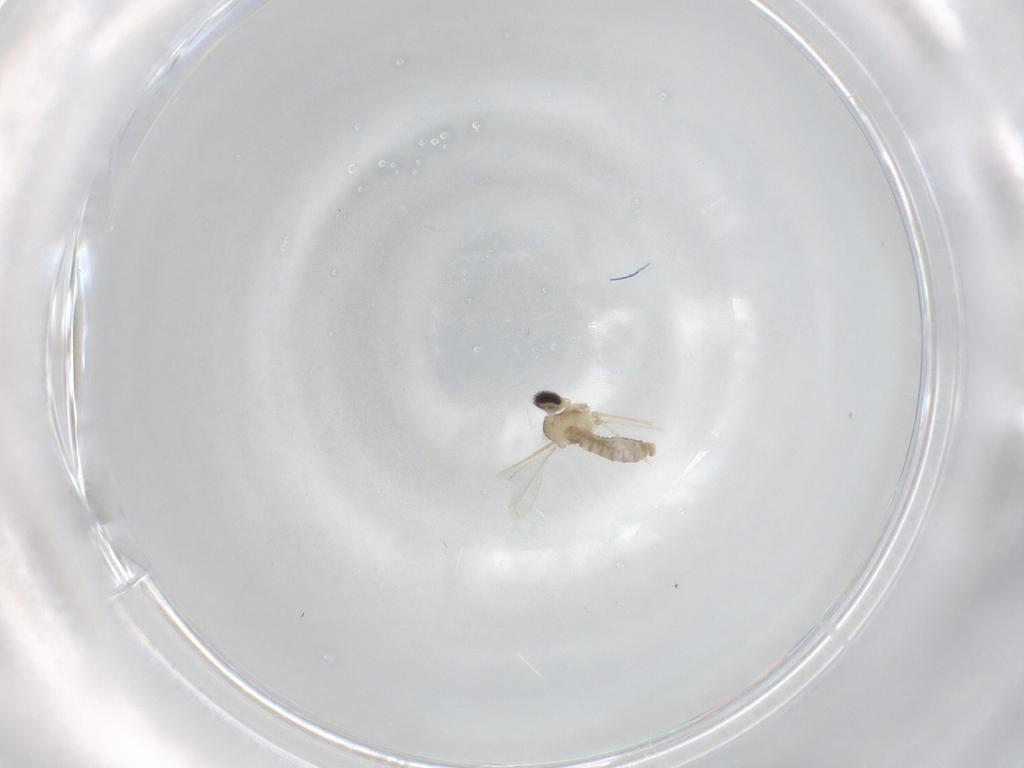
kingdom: Animalia
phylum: Arthropoda
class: Insecta
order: Diptera
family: Cecidomyiidae
